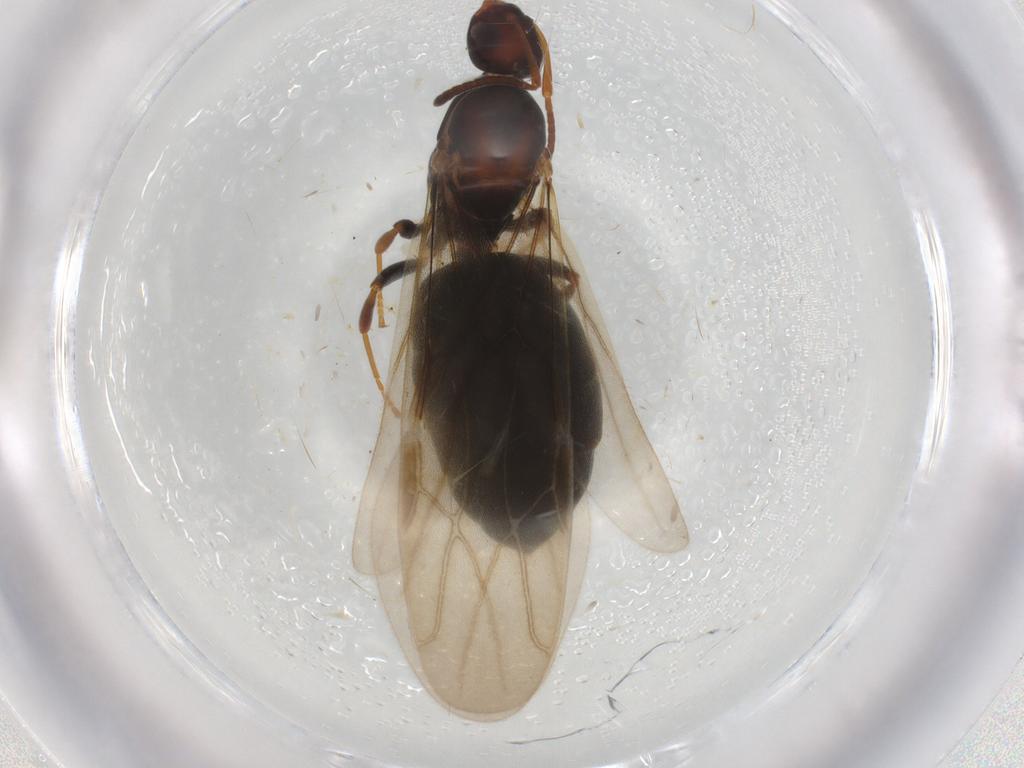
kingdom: Animalia
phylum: Arthropoda
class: Insecta
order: Hymenoptera
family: Formicidae
